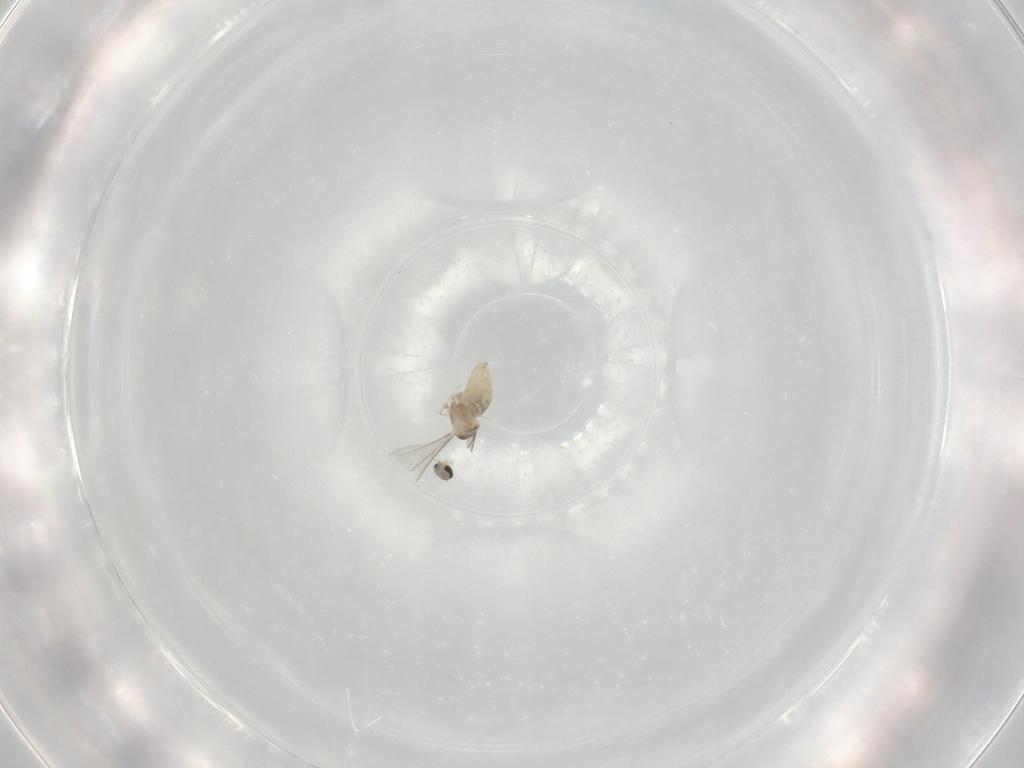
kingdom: Animalia
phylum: Arthropoda
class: Insecta
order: Diptera
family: Cecidomyiidae
